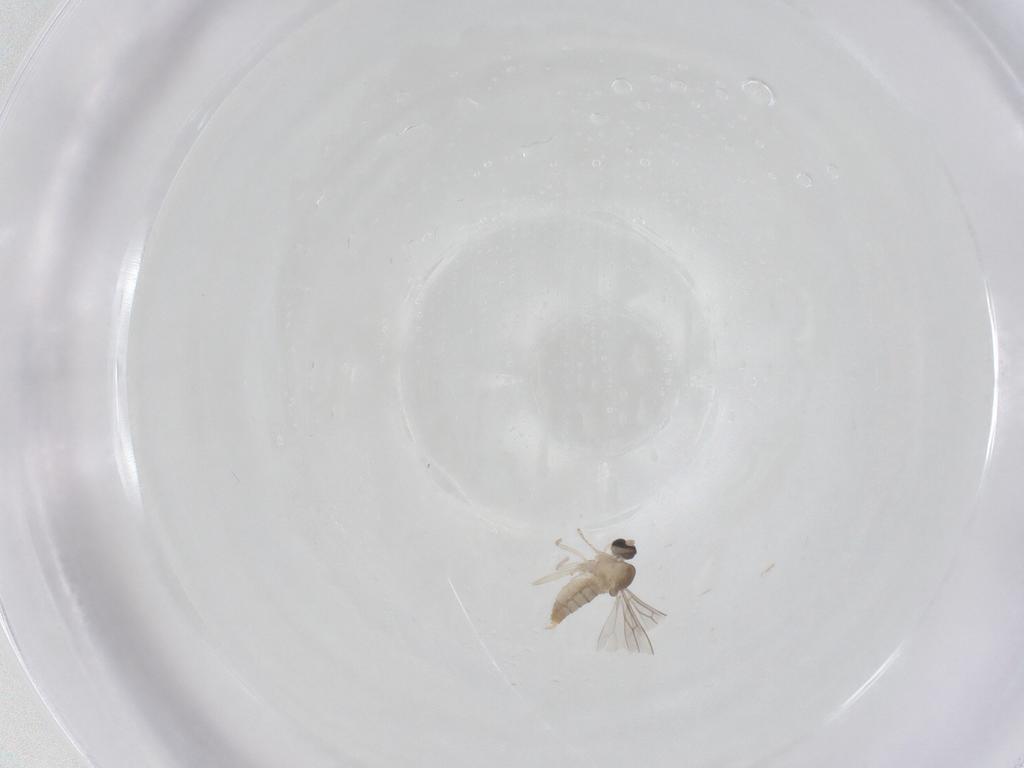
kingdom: Animalia
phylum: Arthropoda
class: Insecta
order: Diptera
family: Cecidomyiidae
